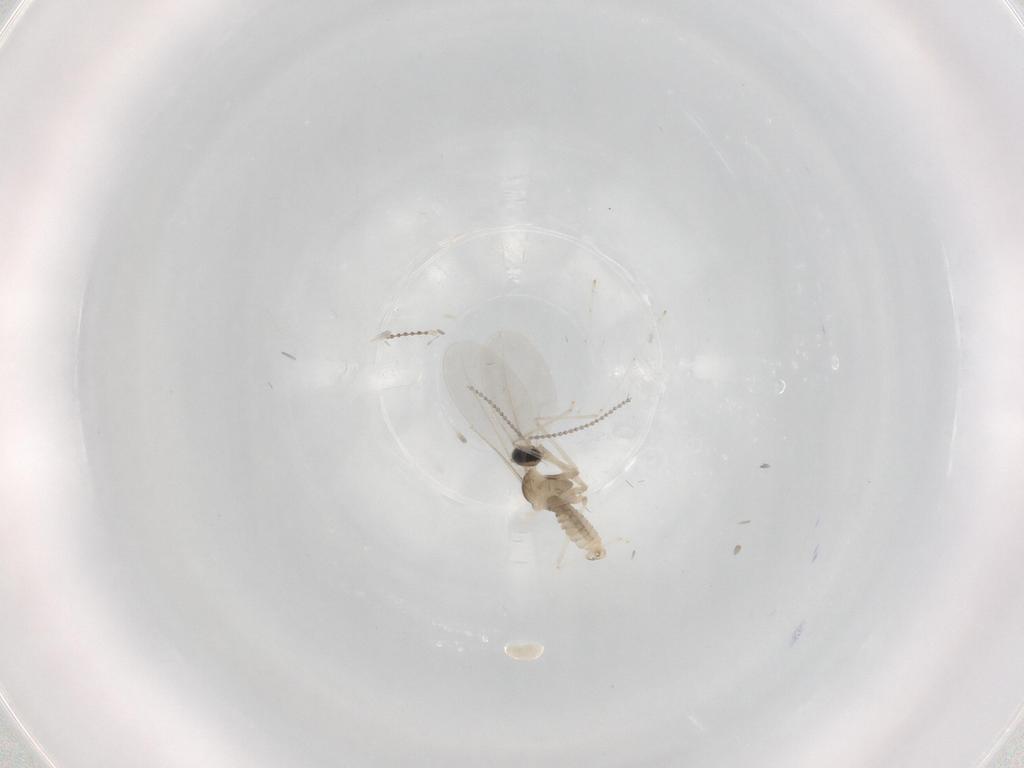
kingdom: Animalia
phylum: Arthropoda
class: Insecta
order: Diptera
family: Cecidomyiidae
